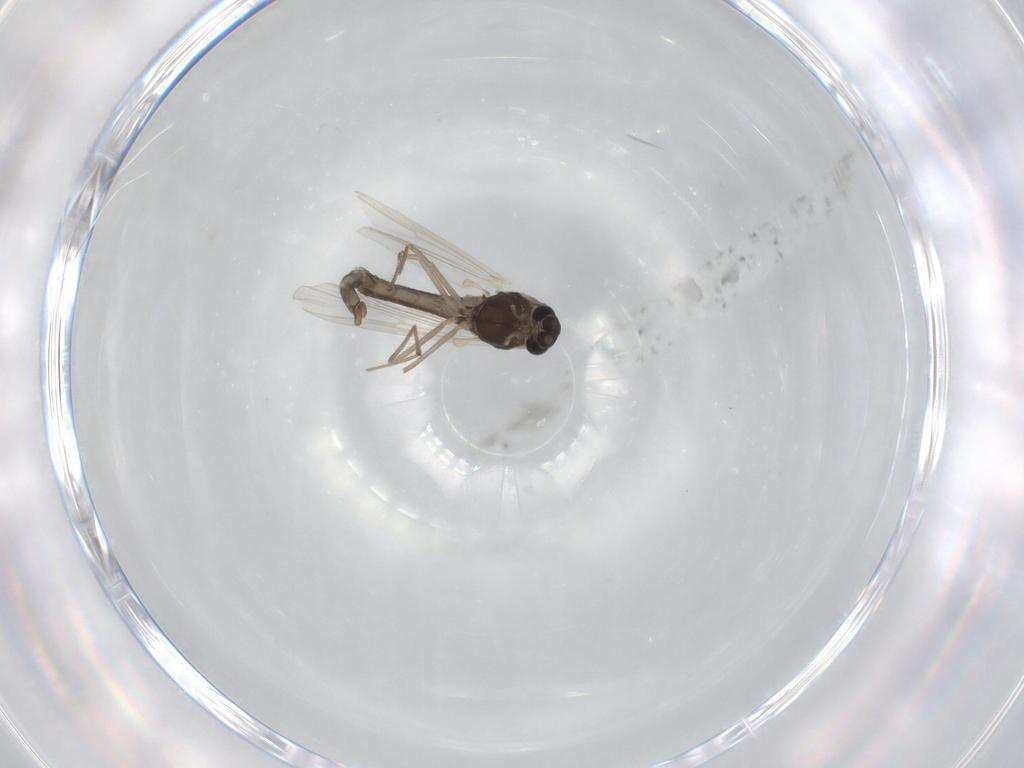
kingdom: Animalia
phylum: Arthropoda
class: Insecta
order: Diptera
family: Chironomidae
